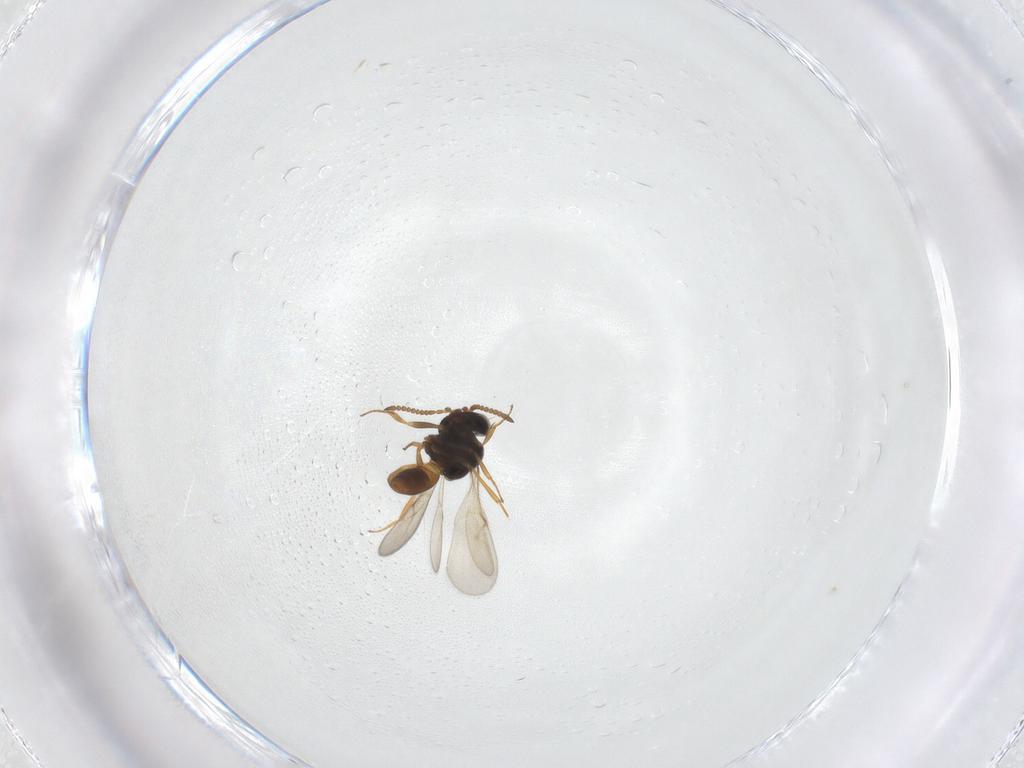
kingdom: Animalia
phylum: Arthropoda
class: Insecta
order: Hymenoptera
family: Scelionidae
